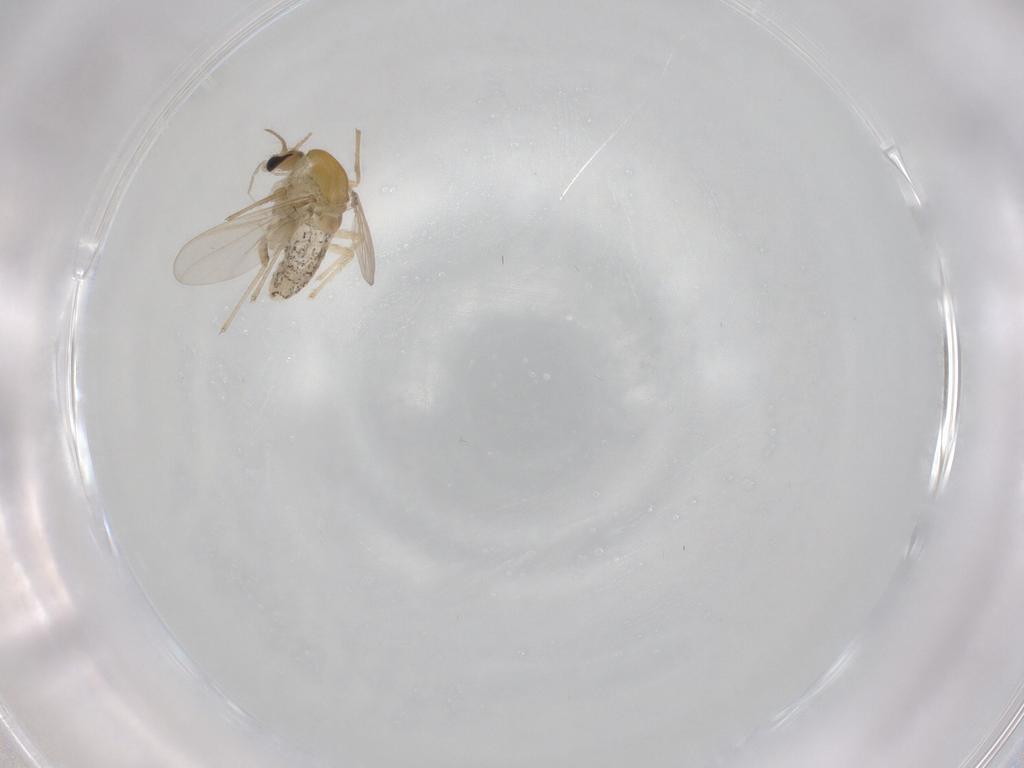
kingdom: Animalia
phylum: Arthropoda
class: Insecta
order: Diptera
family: Chironomidae
